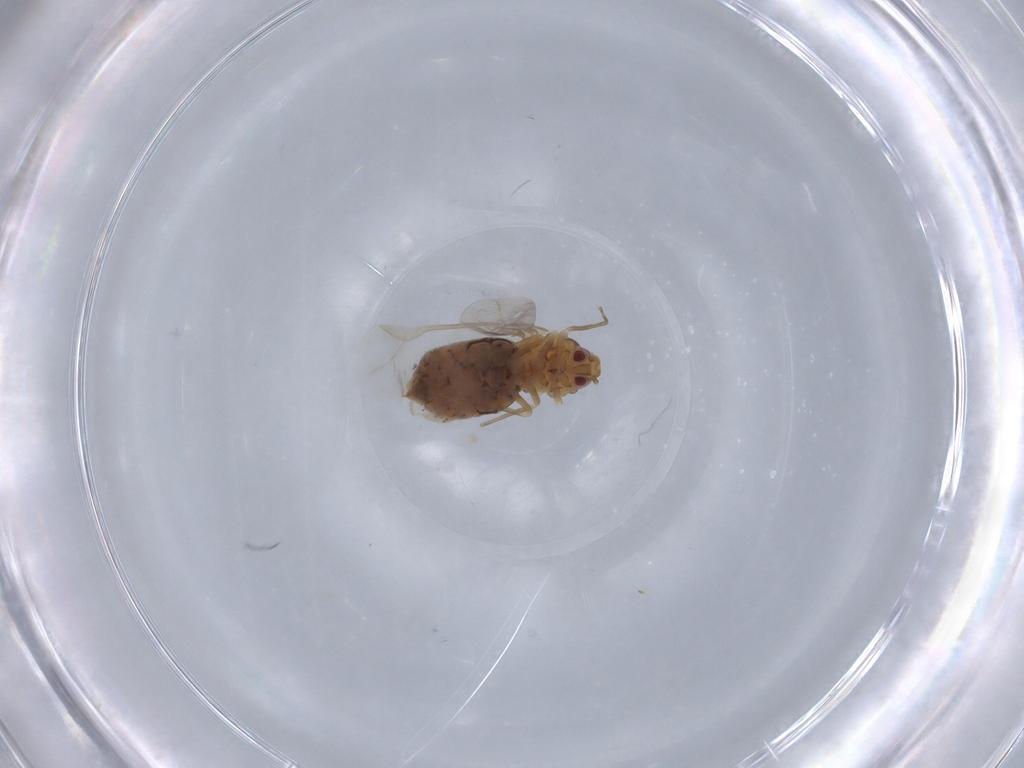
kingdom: Animalia
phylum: Arthropoda
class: Insecta
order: Hemiptera
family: Aleyrodidae
